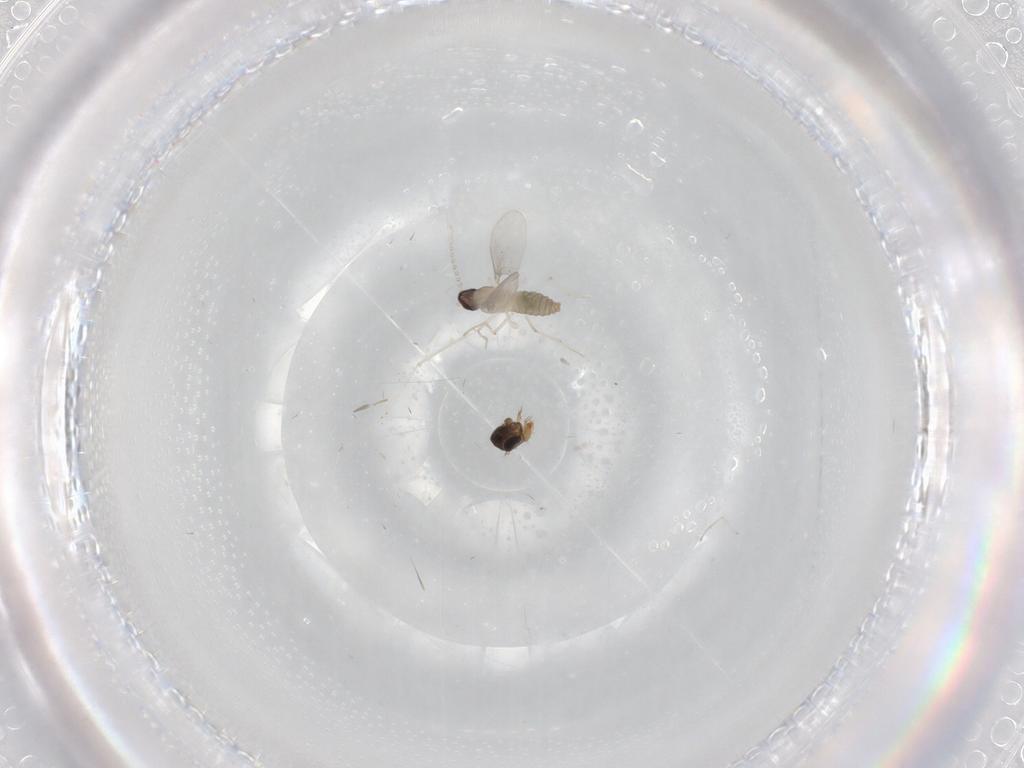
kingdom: Animalia
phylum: Arthropoda
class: Insecta
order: Diptera
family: Cecidomyiidae
